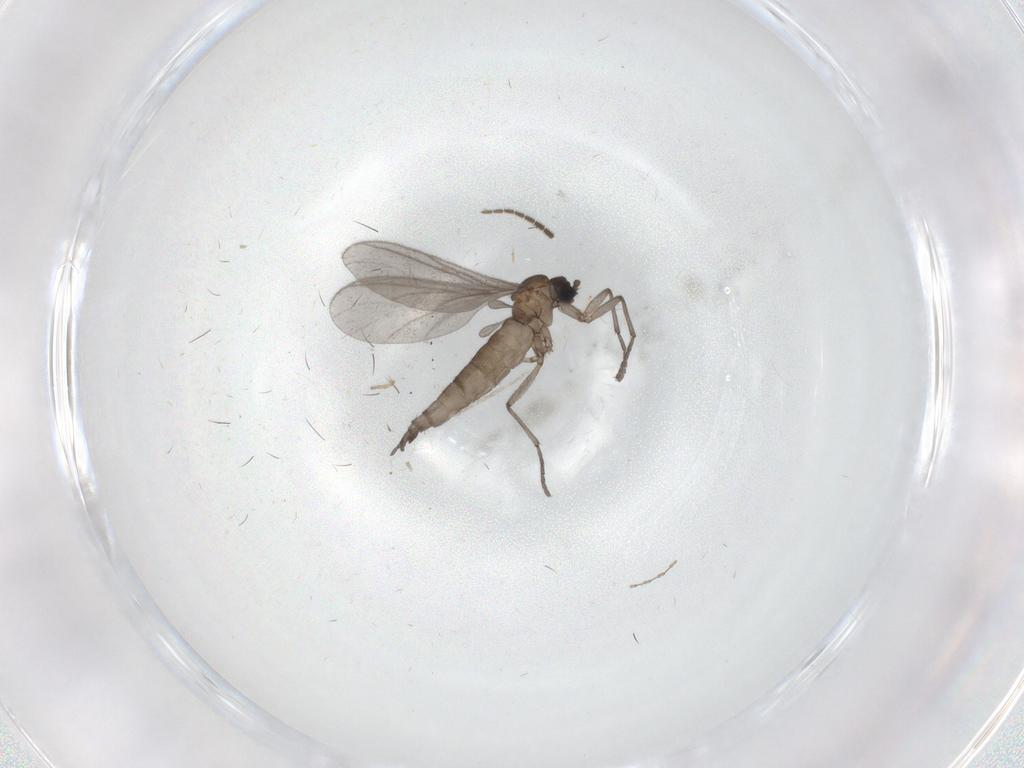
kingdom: Animalia
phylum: Arthropoda
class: Insecta
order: Diptera
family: Sciaridae
